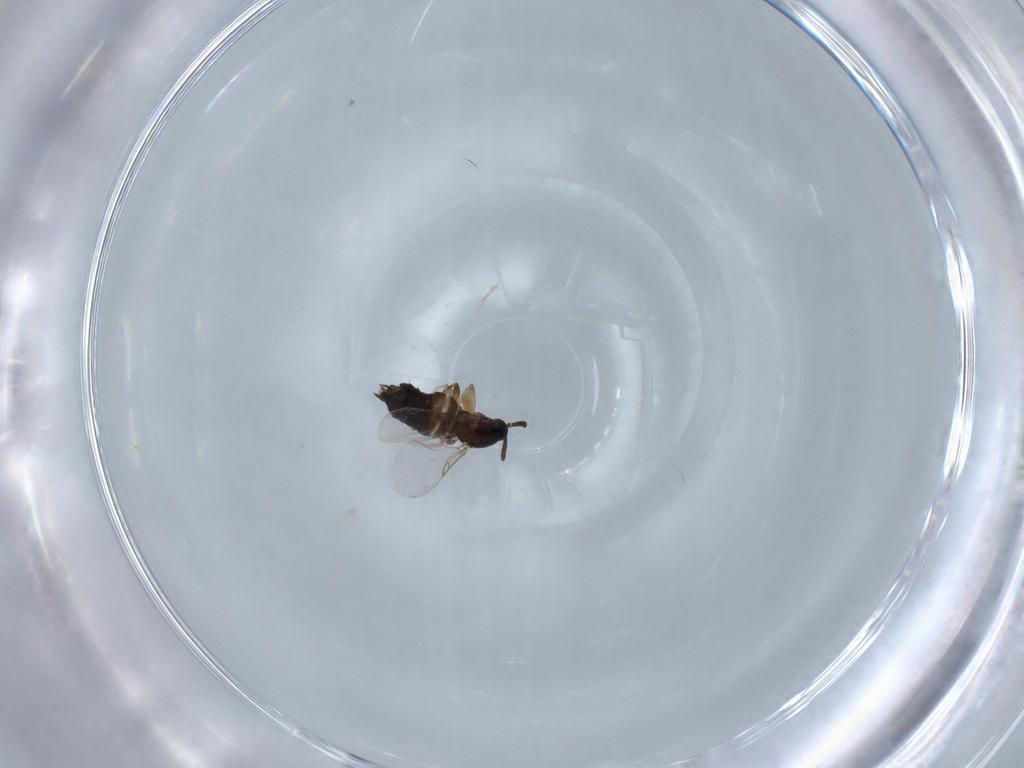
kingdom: Animalia
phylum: Arthropoda
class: Insecta
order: Diptera
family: Scatopsidae
